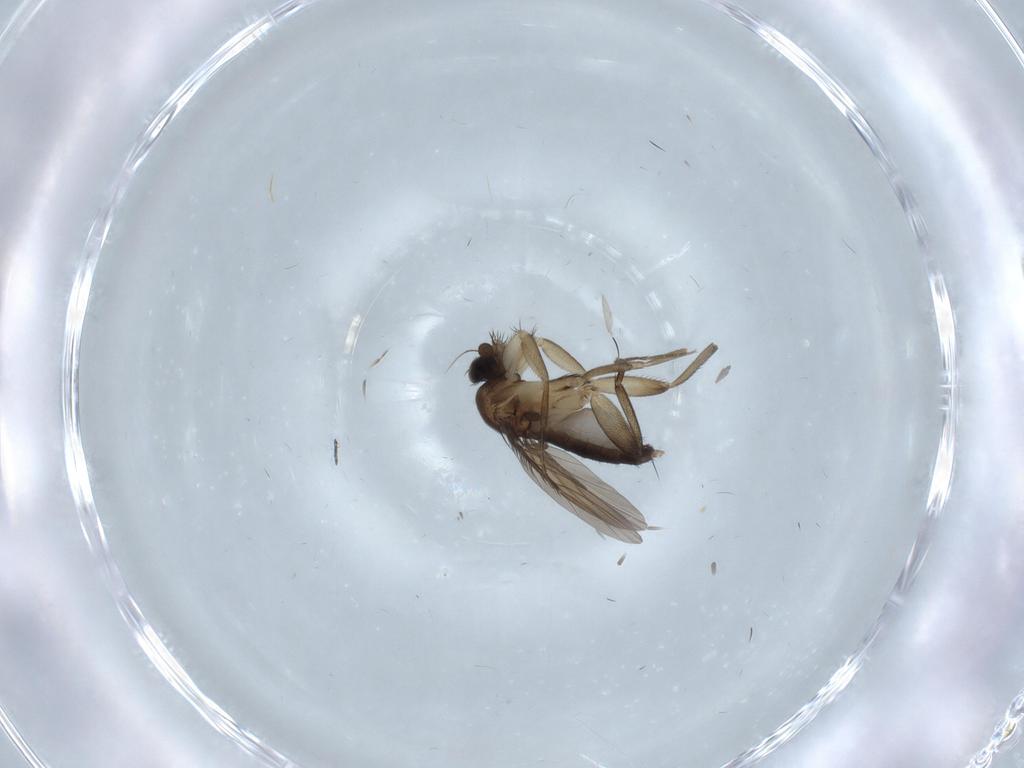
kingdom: Animalia
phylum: Arthropoda
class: Insecta
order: Diptera
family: Phoridae
